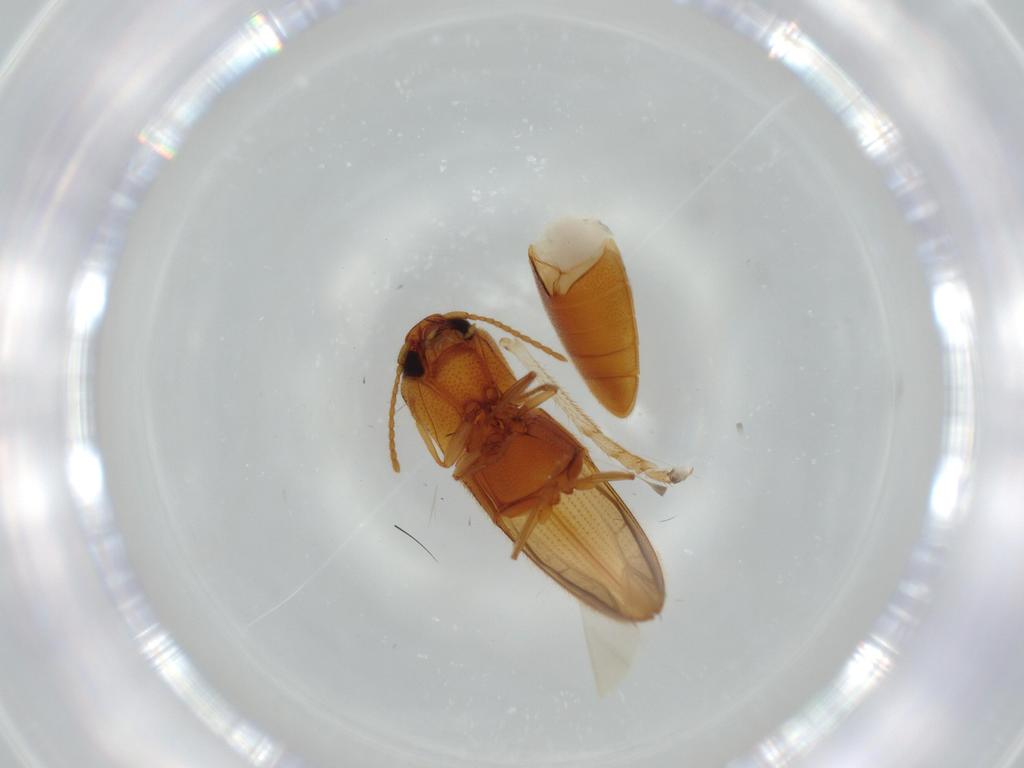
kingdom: Animalia
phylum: Arthropoda
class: Insecta
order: Coleoptera
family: Elateridae
